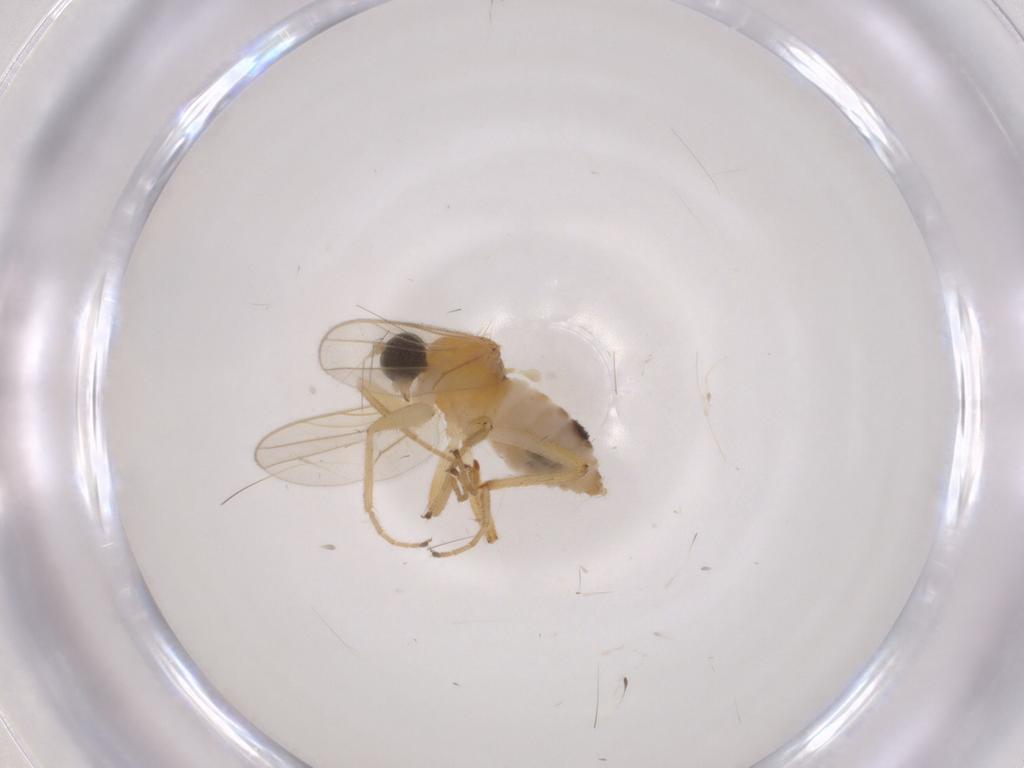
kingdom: Animalia
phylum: Arthropoda
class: Insecta
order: Diptera
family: Hybotidae
